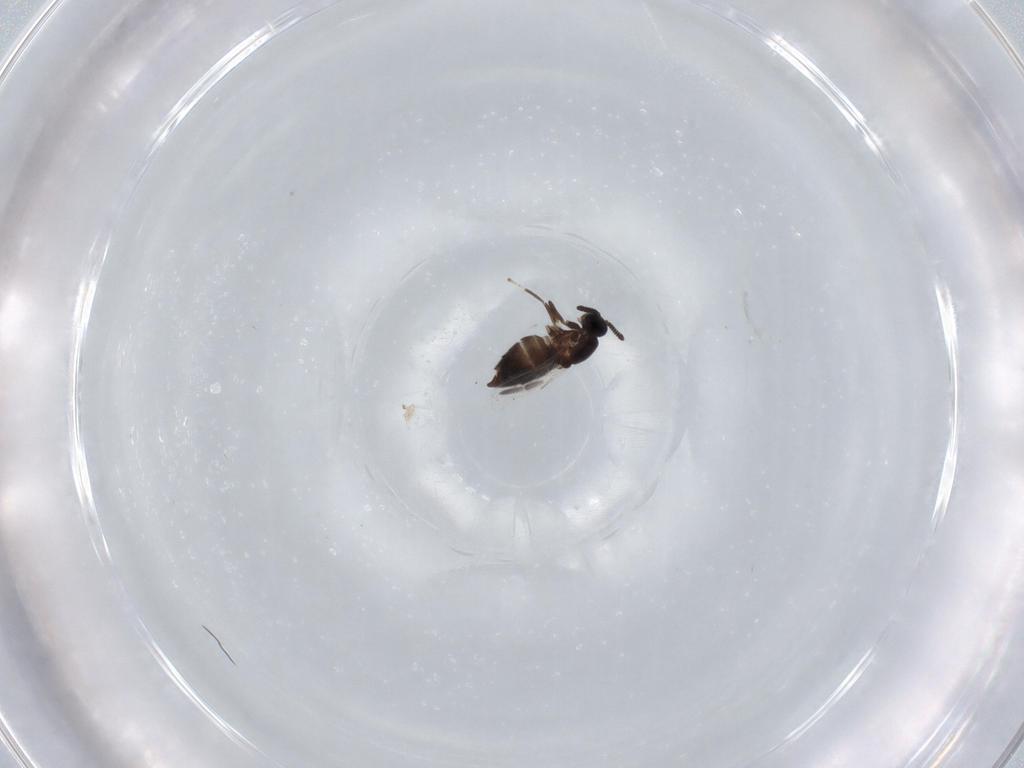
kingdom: Animalia
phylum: Arthropoda
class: Insecta
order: Diptera
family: Scatopsidae
